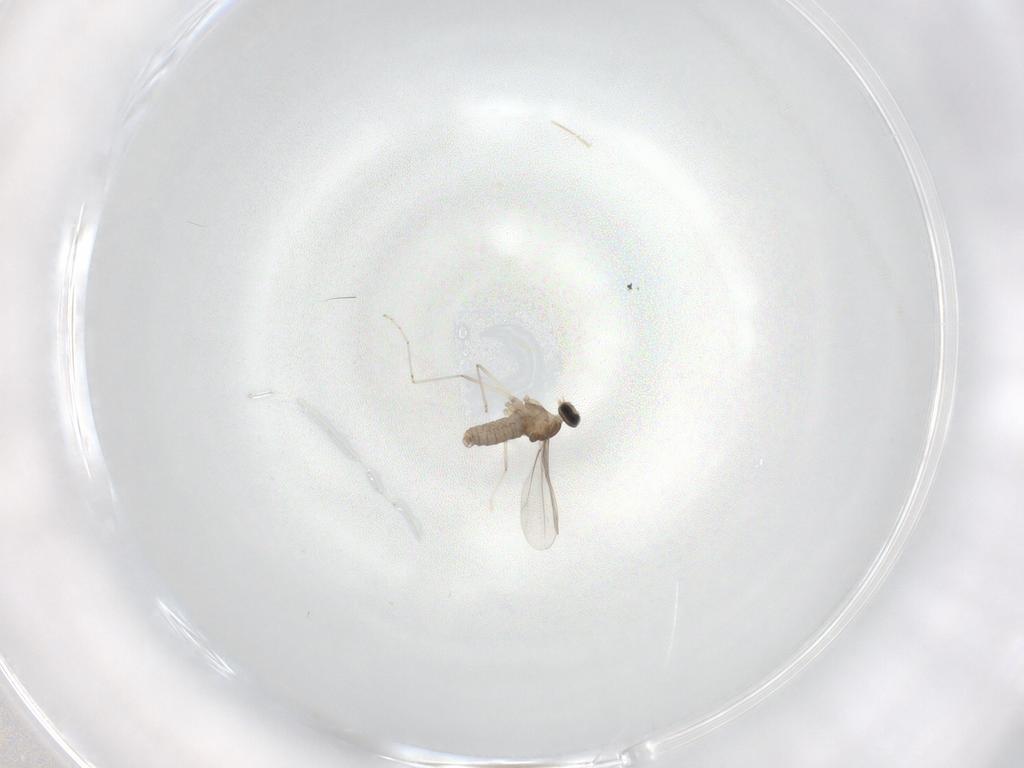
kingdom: Animalia
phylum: Arthropoda
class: Insecta
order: Diptera
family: Cecidomyiidae
